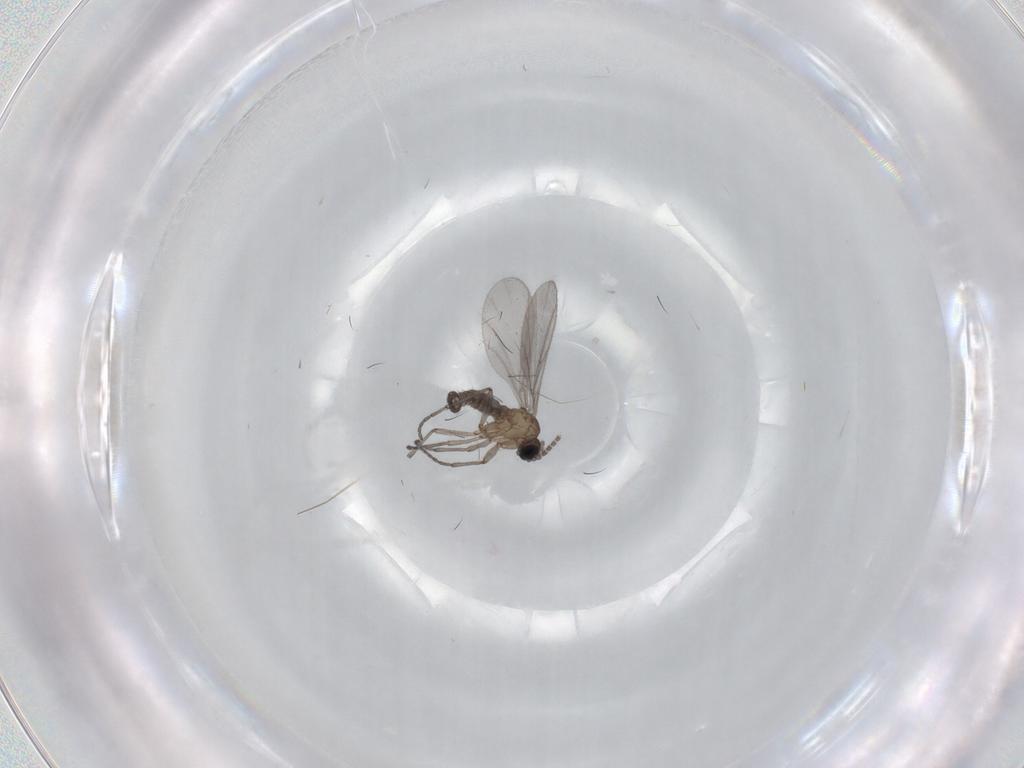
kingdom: Animalia
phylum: Arthropoda
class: Insecta
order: Diptera
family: Sciaridae
